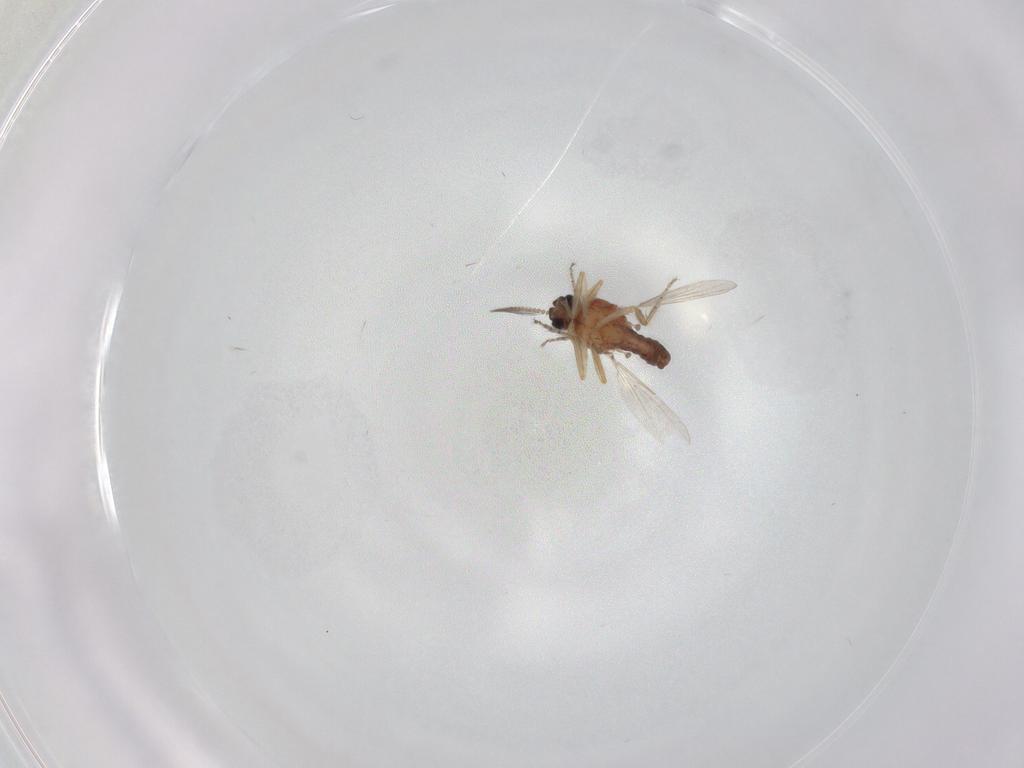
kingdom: Animalia
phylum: Arthropoda
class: Insecta
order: Diptera
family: Ceratopogonidae
